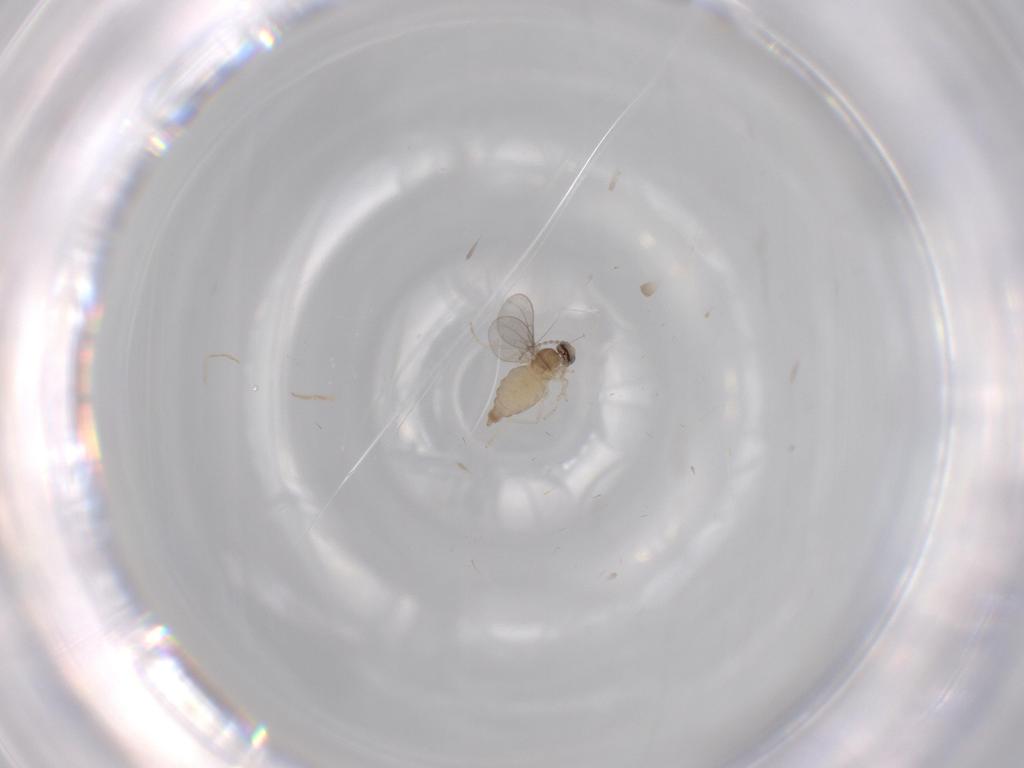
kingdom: Animalia
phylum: Arthropoda
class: Insecta
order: Diptera
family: Cecidomyiidae
